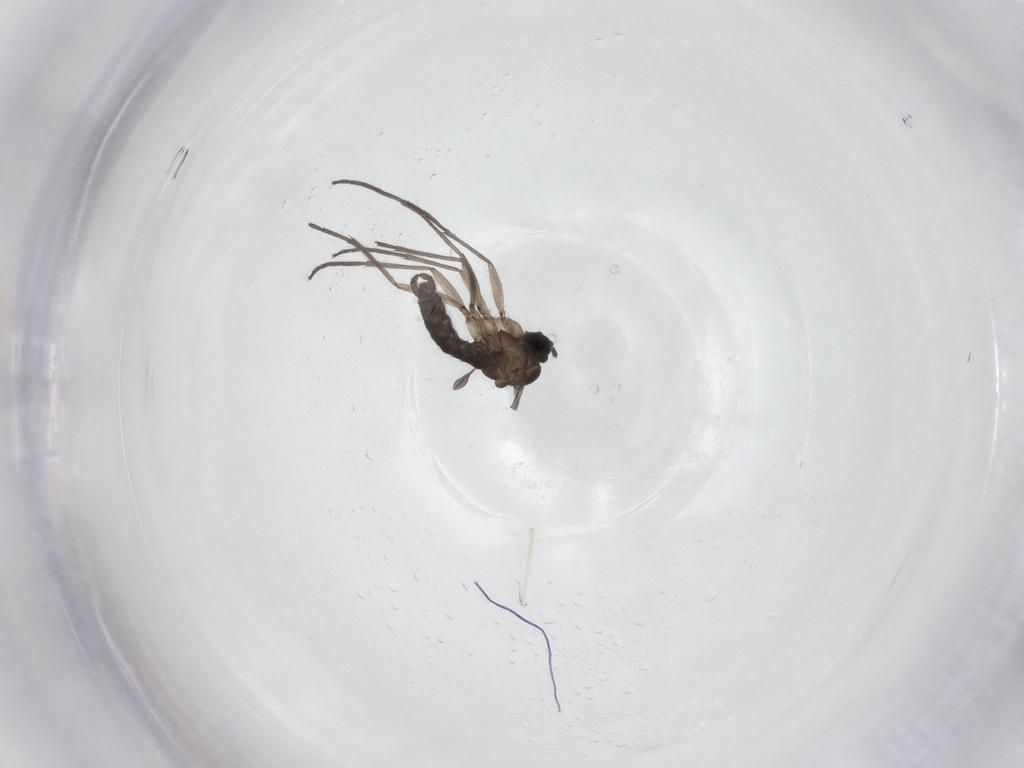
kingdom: Animalia
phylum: Arthropoda
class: Insecta
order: Diptera
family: Sciaridae
